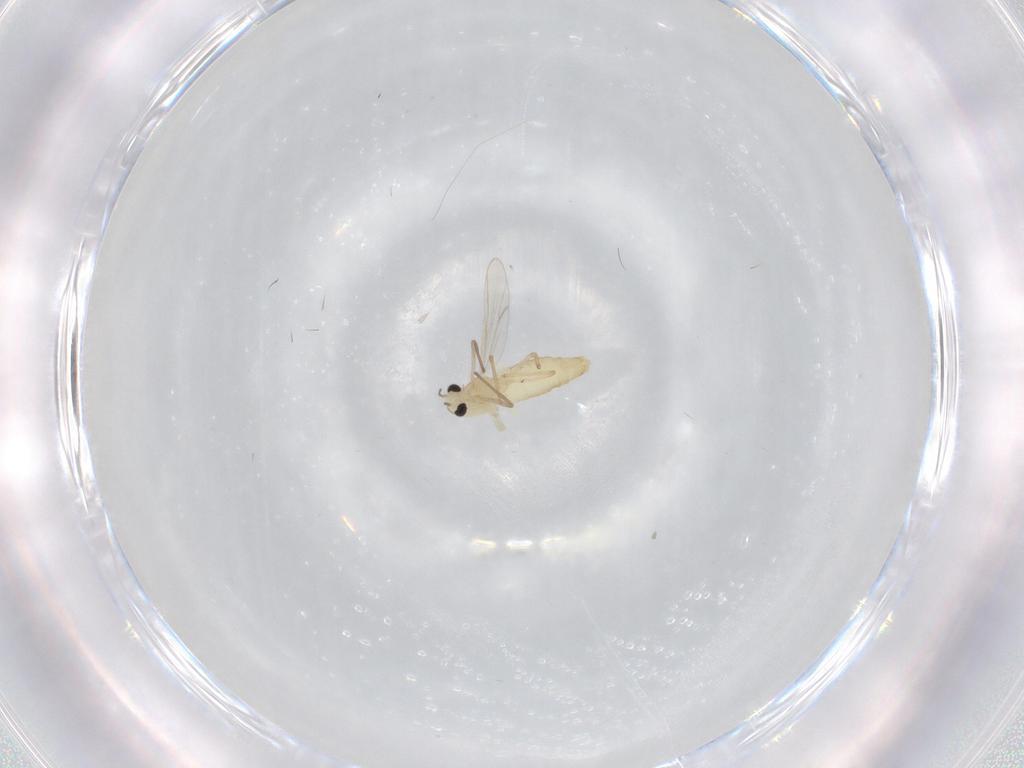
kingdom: Animalia
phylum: Arthropoda
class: Insecta
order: Diptera
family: Chironomidae
